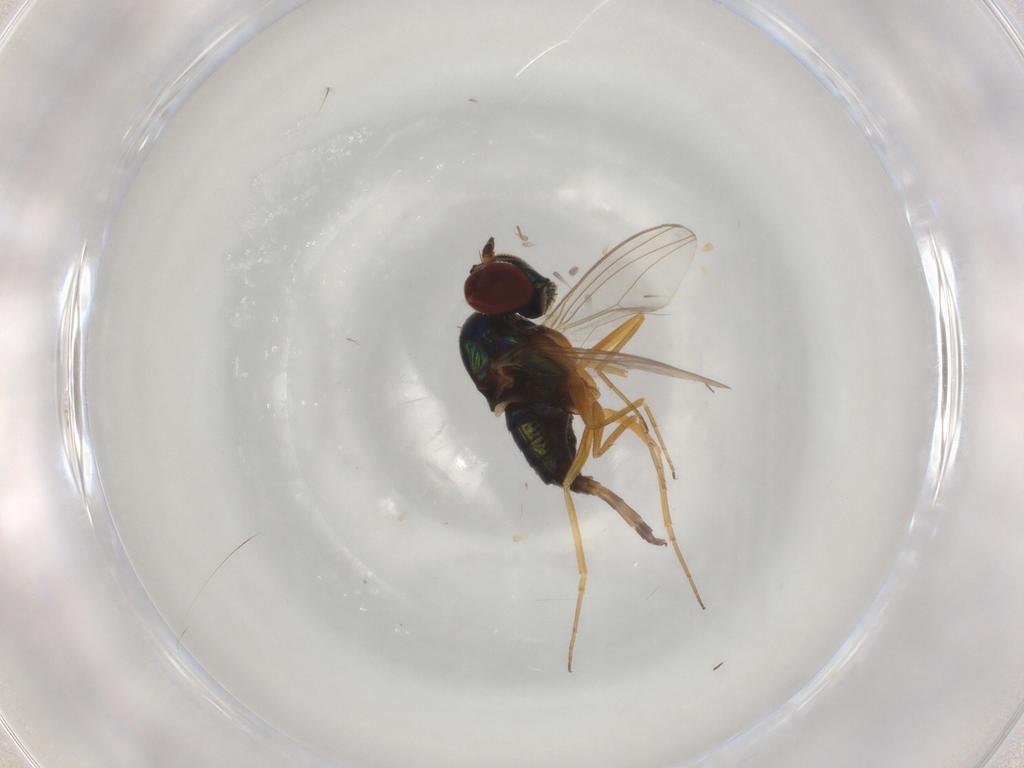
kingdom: Animalia
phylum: Arthropoda
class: Insecta
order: Diptera
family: Dolichopodidae
